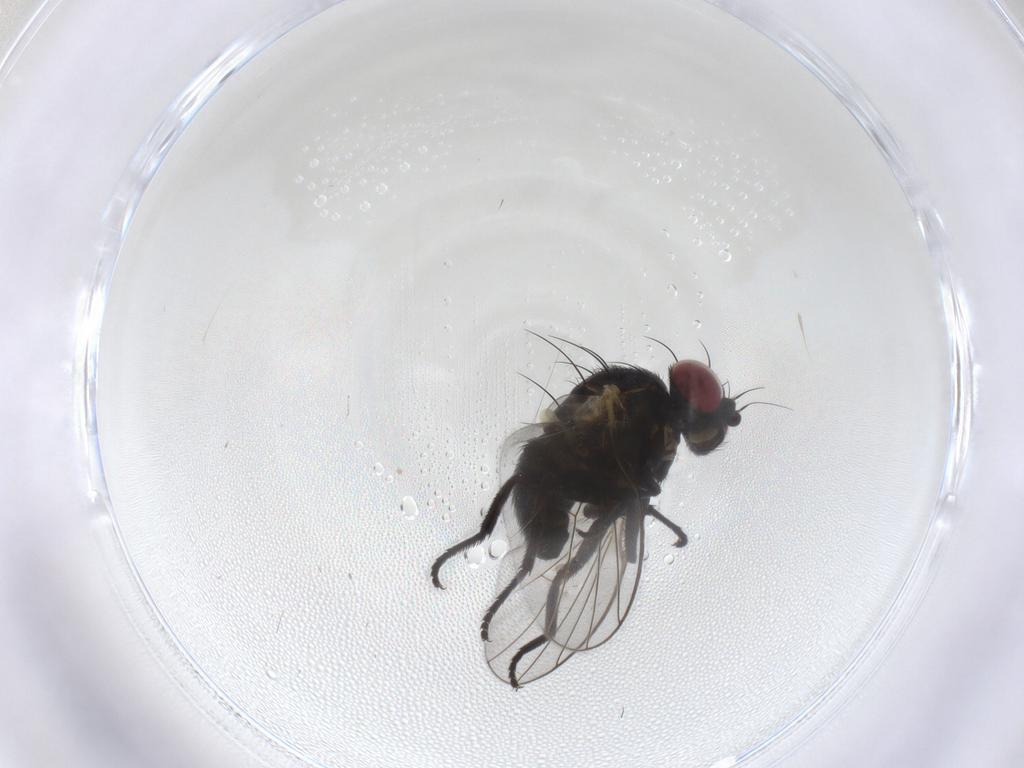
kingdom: Animalia
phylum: Arthropoda
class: Insecta
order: Diptera
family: Agromyzidae
